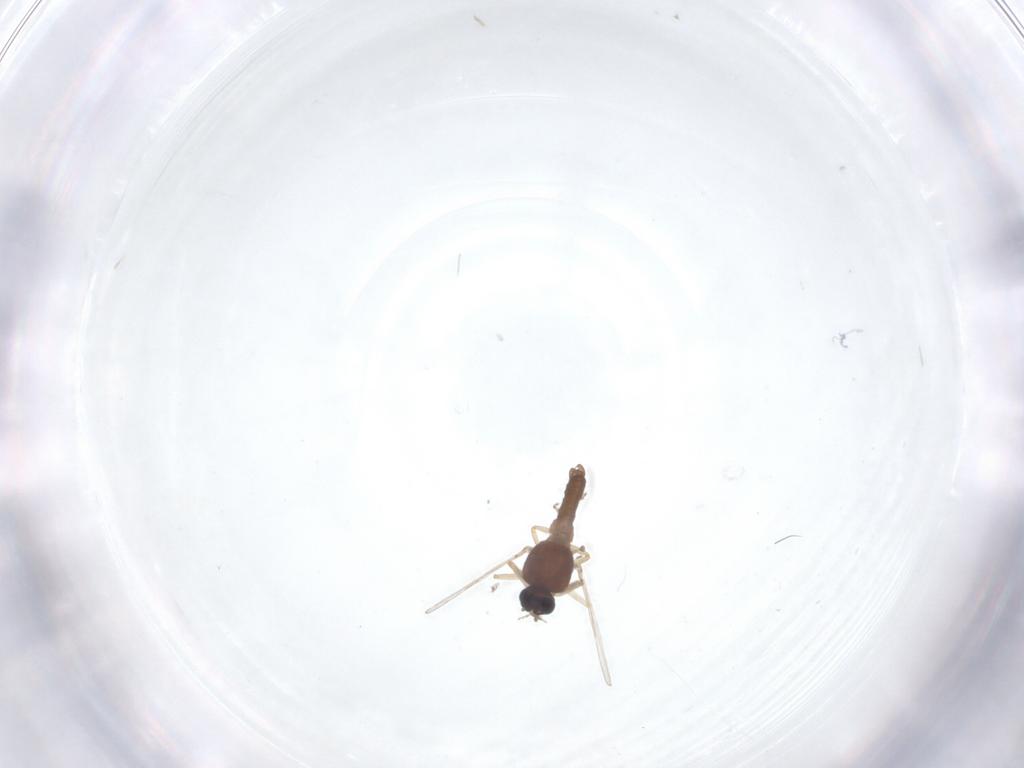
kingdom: Animalia
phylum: Arthropoda
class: Insecta
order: Diptera
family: Ceratopogonidae
